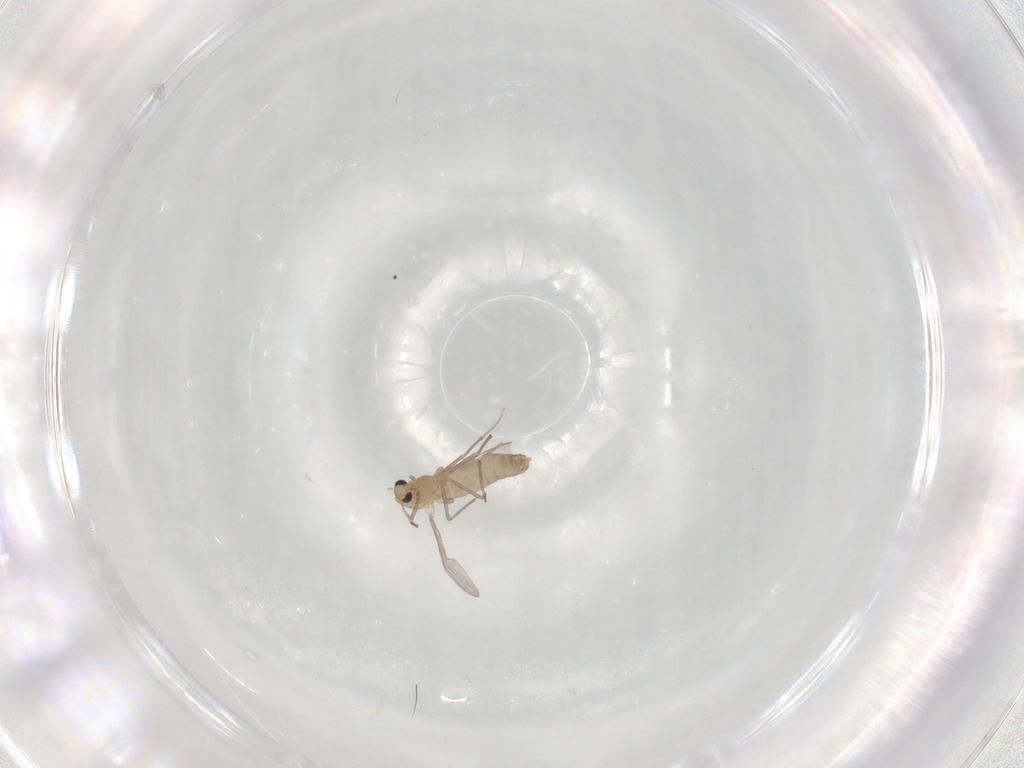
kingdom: Animalia
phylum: Arthropoda
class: Insecta
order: Diptera
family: Chironomidae
